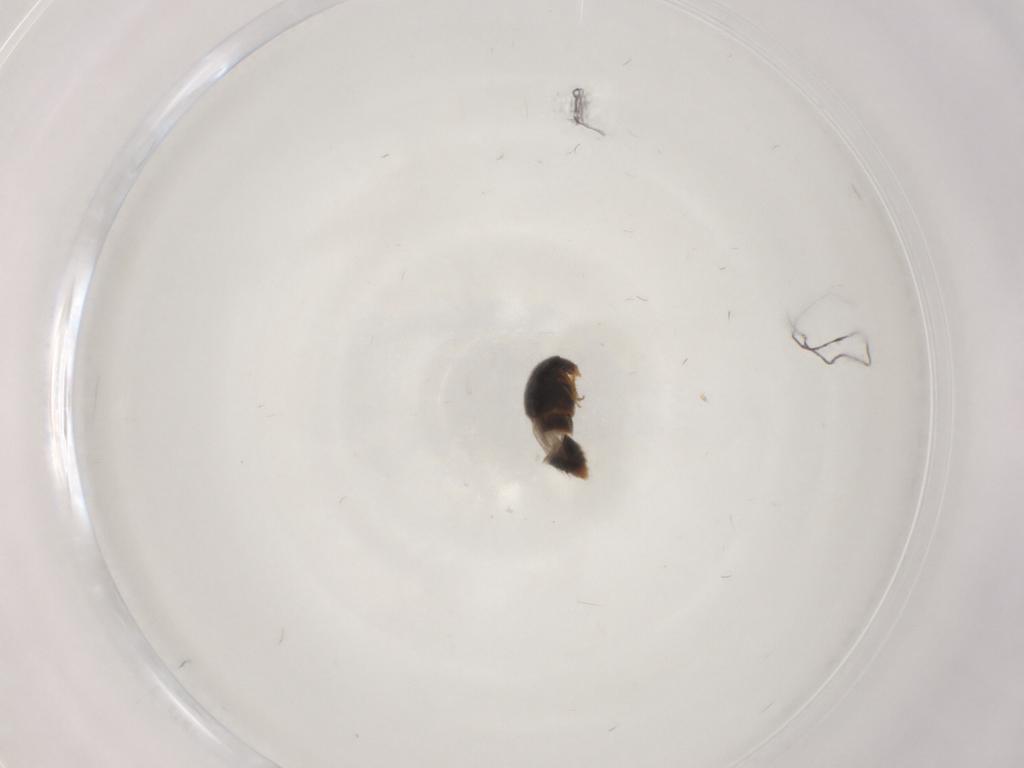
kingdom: Animalia
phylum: Arthropoda
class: Insecta
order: Coleoptera
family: Staphylinidae
